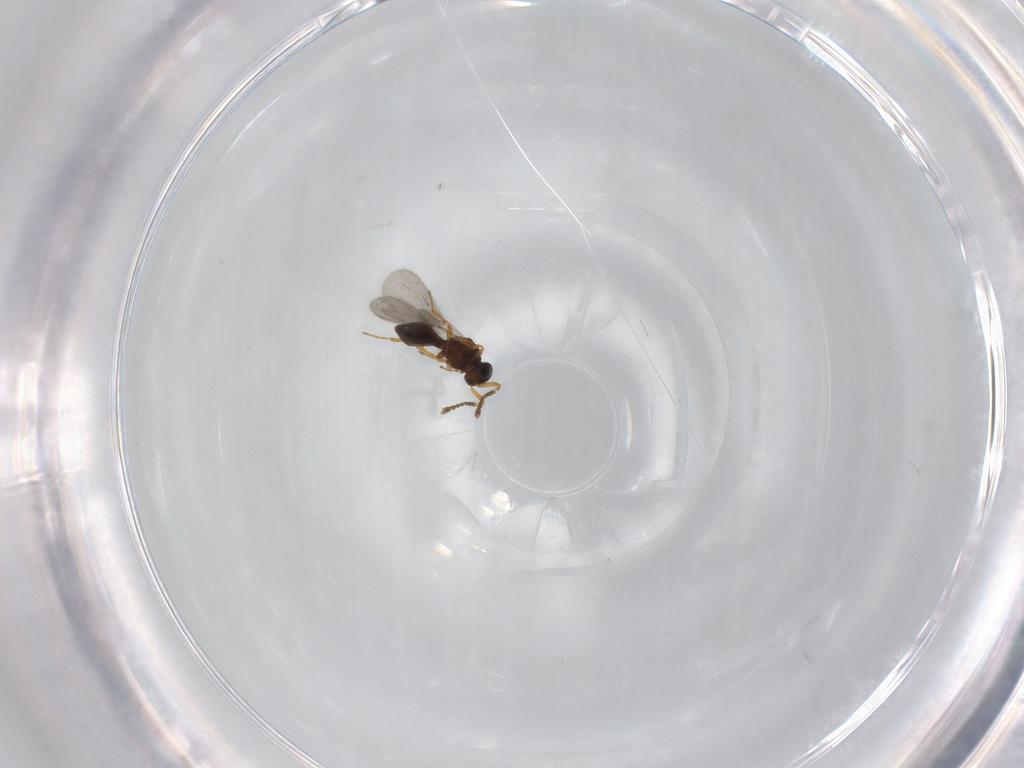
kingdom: Animalia
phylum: Arthropoda
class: Insecta
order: Hymenoptera
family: Platygastridae
